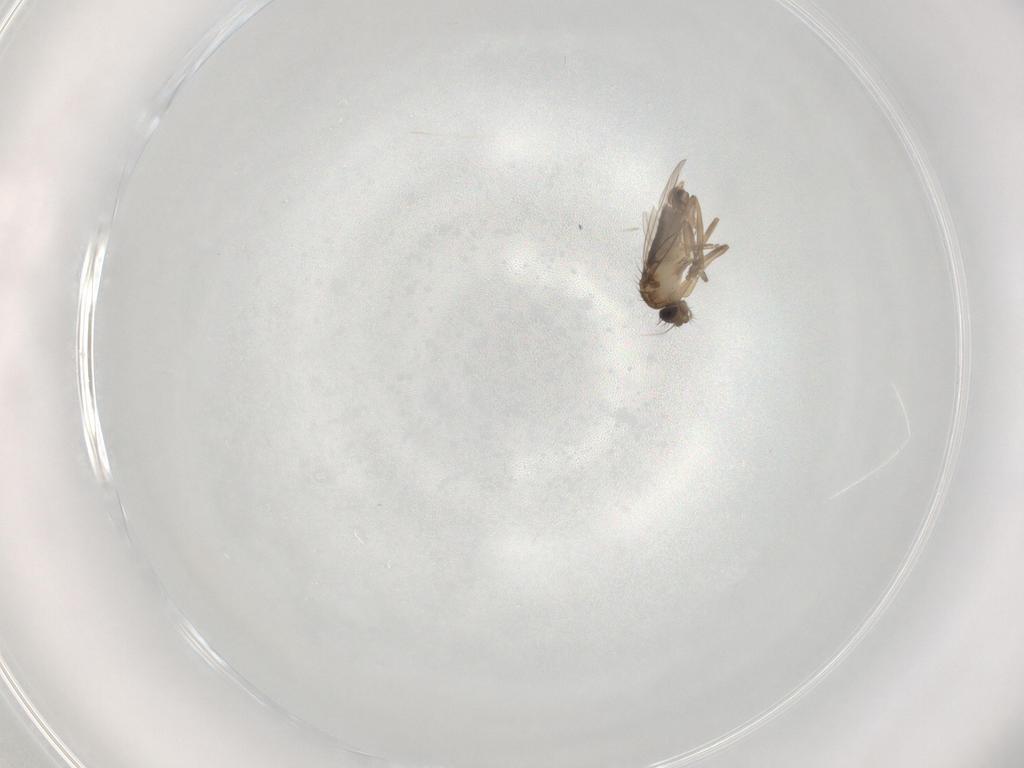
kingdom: Animalia
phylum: Arthropoda
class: Insecta
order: Diptera
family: Phoridae
